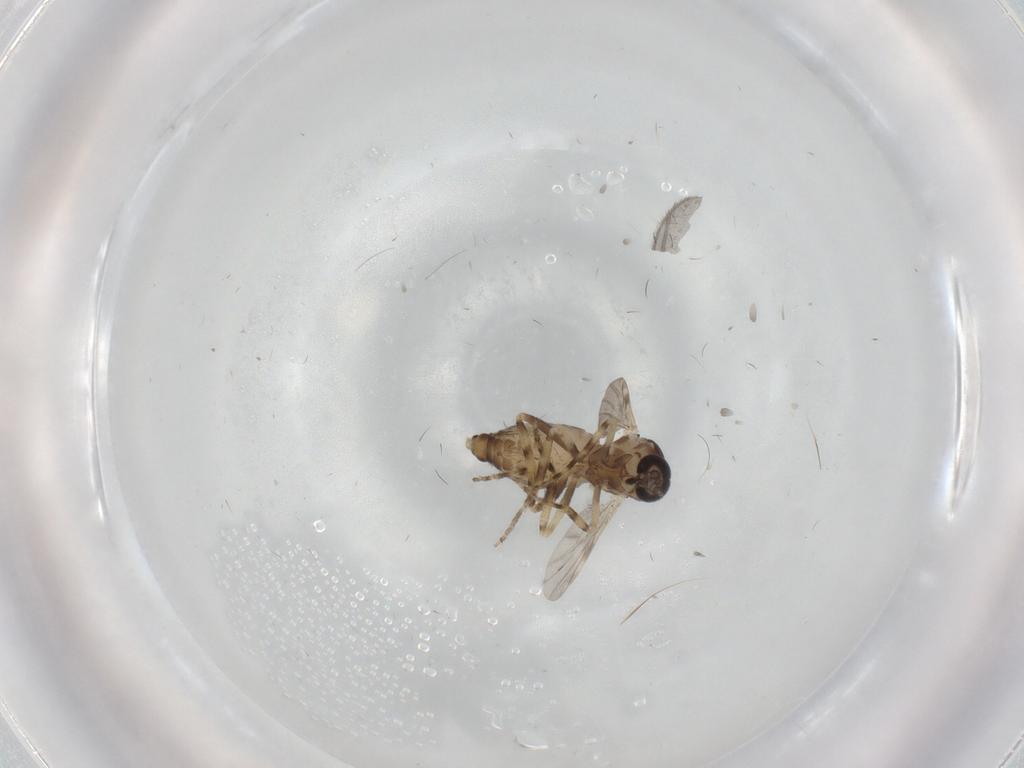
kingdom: Animalia
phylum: Arthropoda
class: Insecta
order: Diptera
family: Ceratopogonidae
